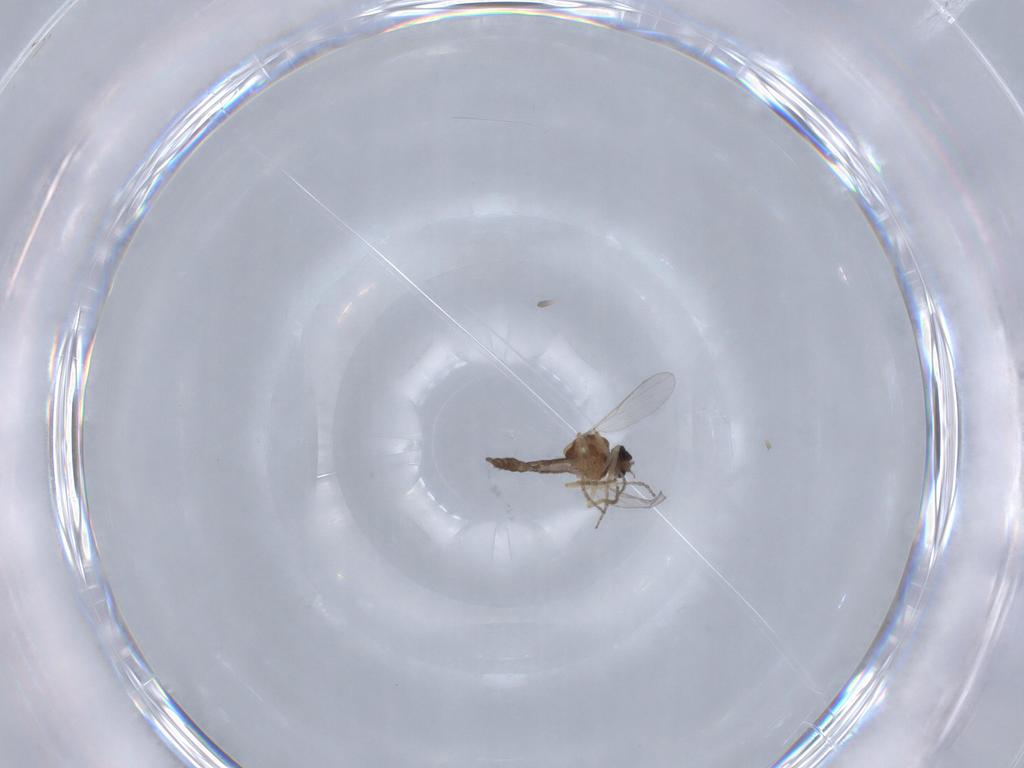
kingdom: Animalia
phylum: Arthropoda
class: Insecta
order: Diptera
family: Ceratopogonidae
